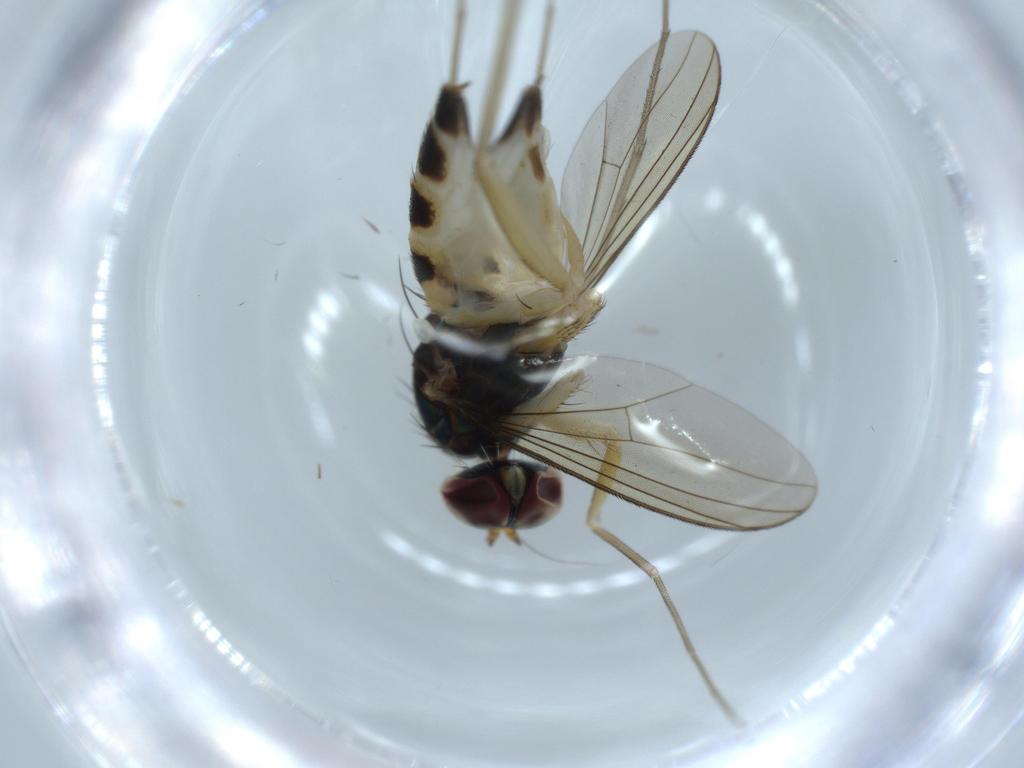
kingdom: Animalia
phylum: Arthropoda
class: Insecta
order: Diptera
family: Dolichopodidae
